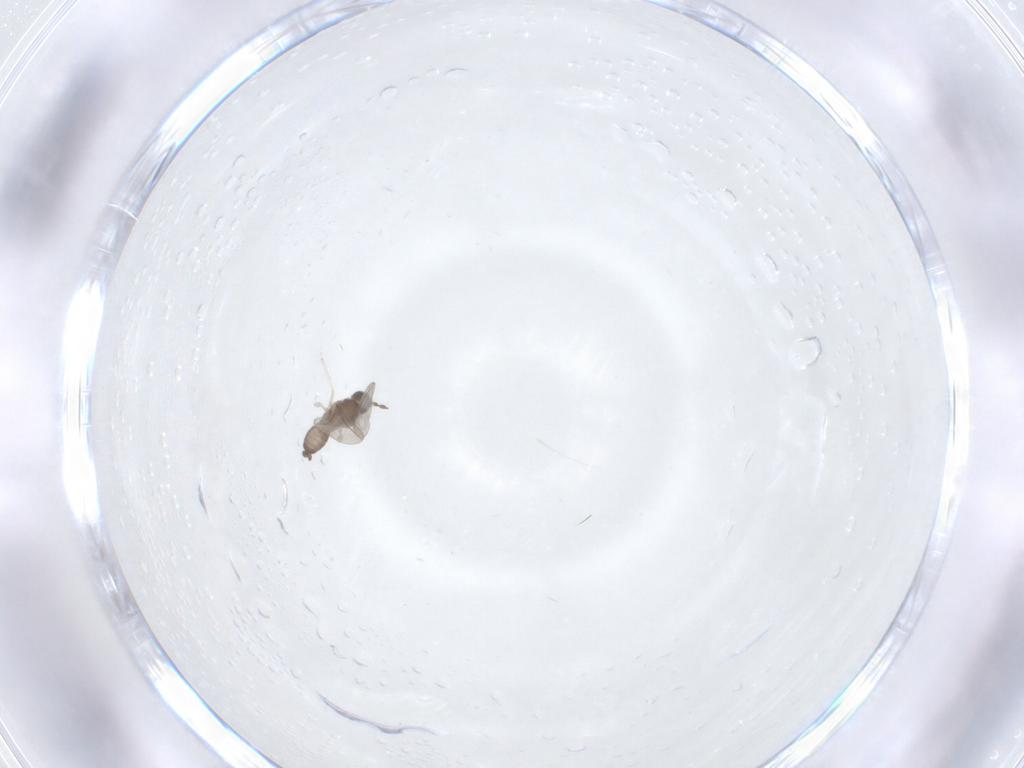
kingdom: Animalia
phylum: Arthropoda
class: Insecta
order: Diptera
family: Cecidomyiidae
